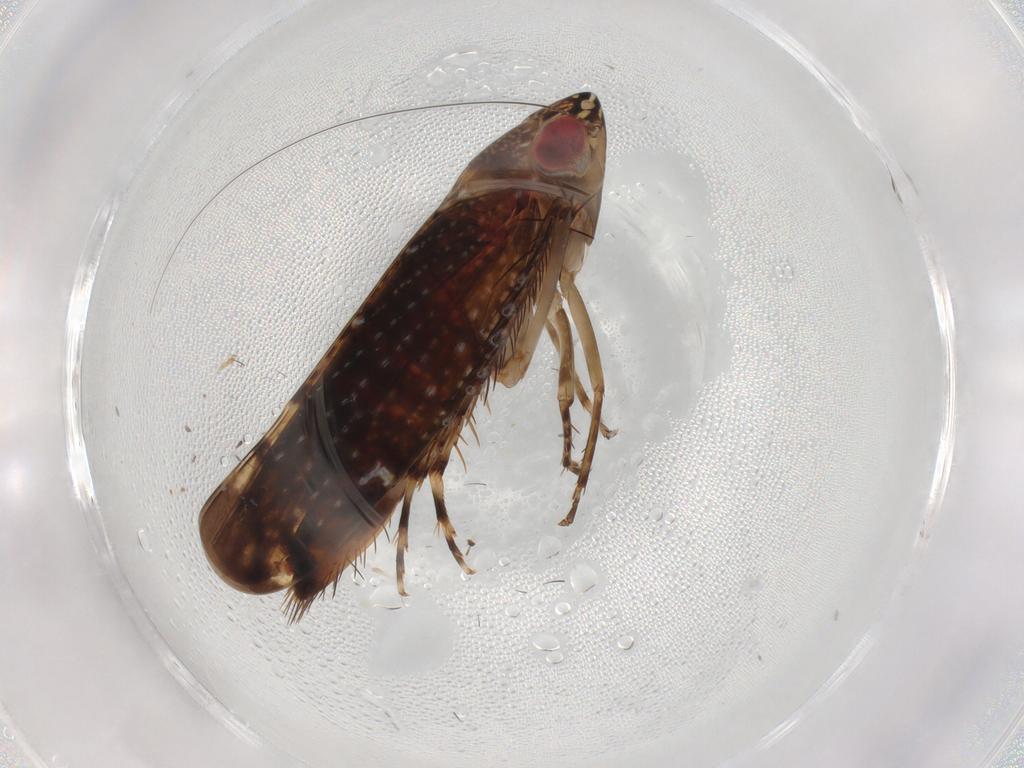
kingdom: Animalia
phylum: Arthropoda
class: Insecta
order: Hemiptera
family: Cicadellidae
